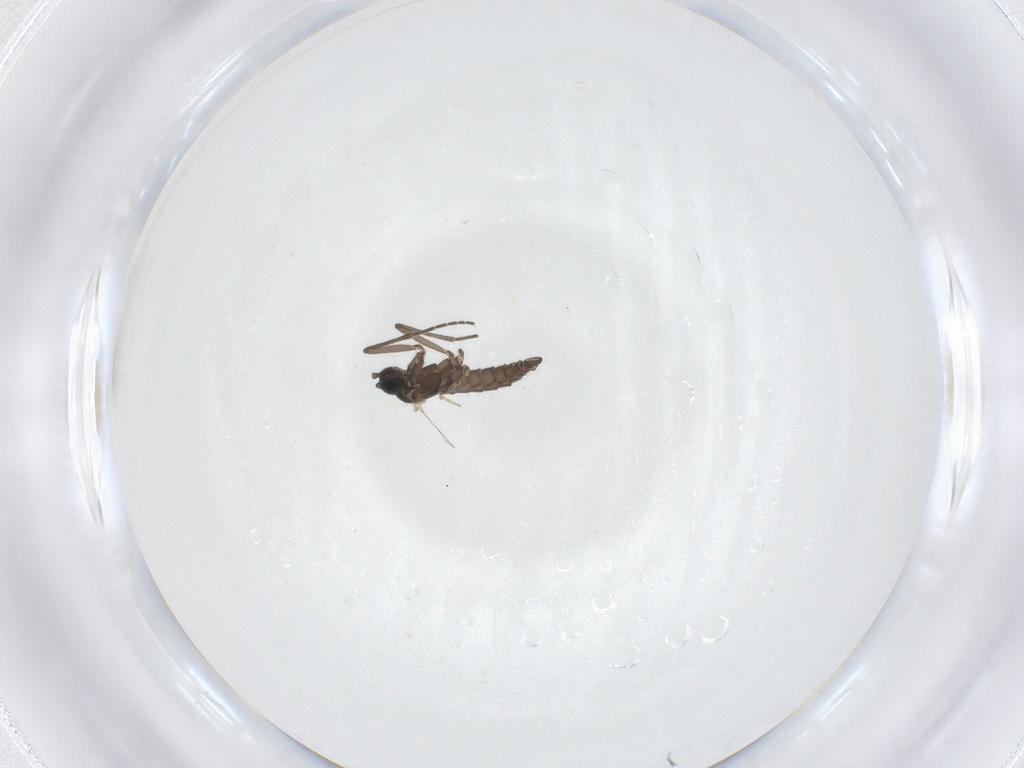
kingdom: Animalia
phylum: Arthropoda
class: Insecta
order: Diptera
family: Sciaridae
